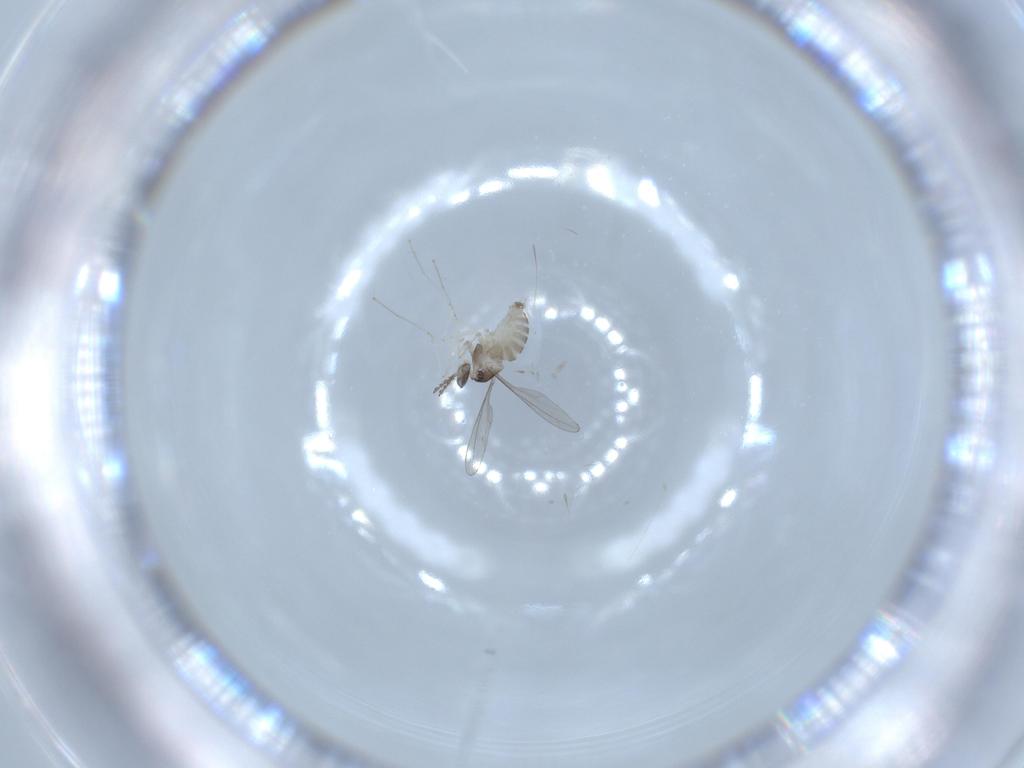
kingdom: Animalia
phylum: Arthropoda
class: Insecta
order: Diptera
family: Cecidomyiidae
